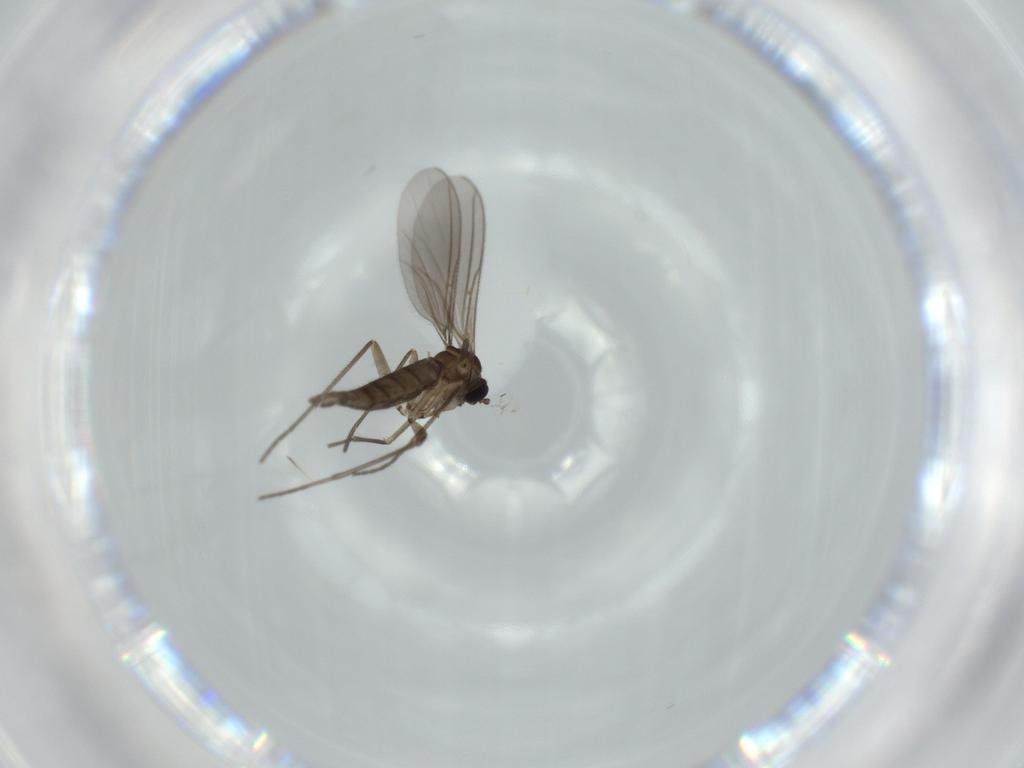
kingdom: Animalia
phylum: Arthropoda
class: Insecta
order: Diptera
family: Sciaridae
